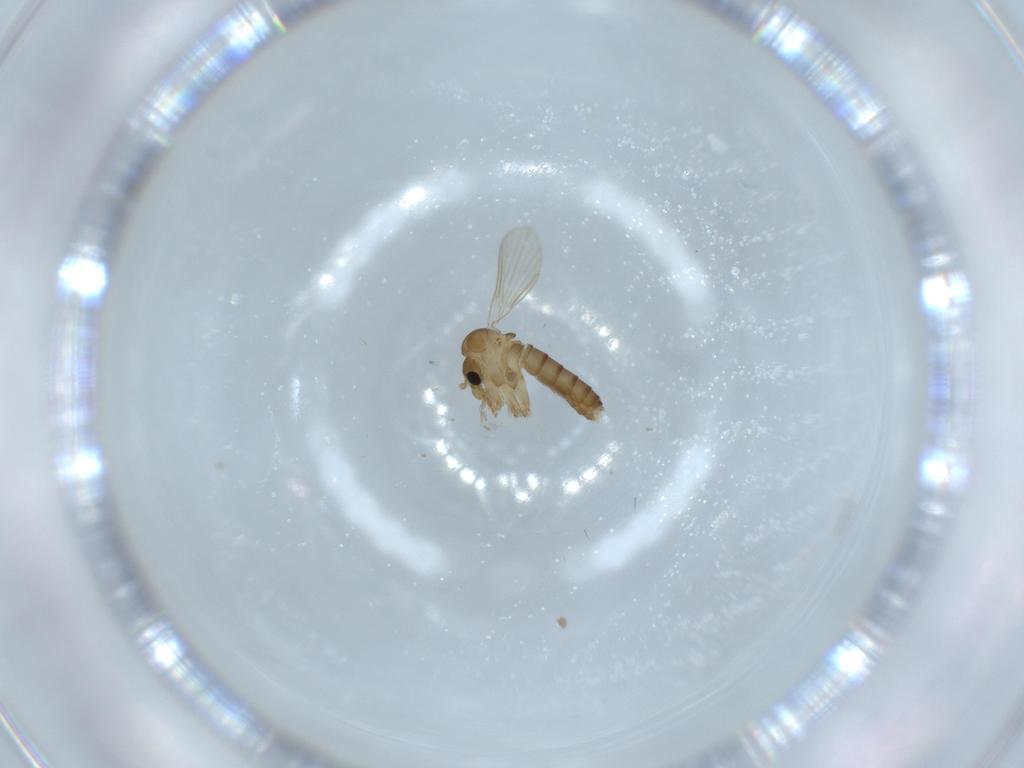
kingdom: Animalia
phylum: Arthropoda
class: Insecta
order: Diptera
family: Psychodidae
